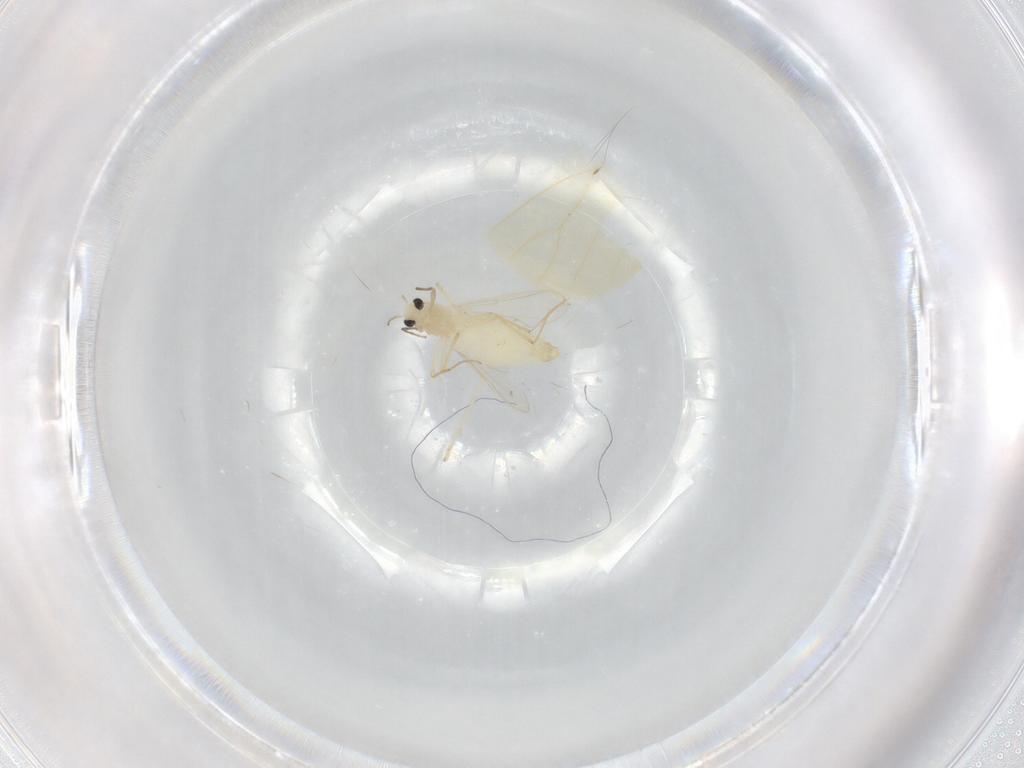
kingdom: Animalia
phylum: Arthropoda
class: Insecta
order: Diptera
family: Chironomidae
